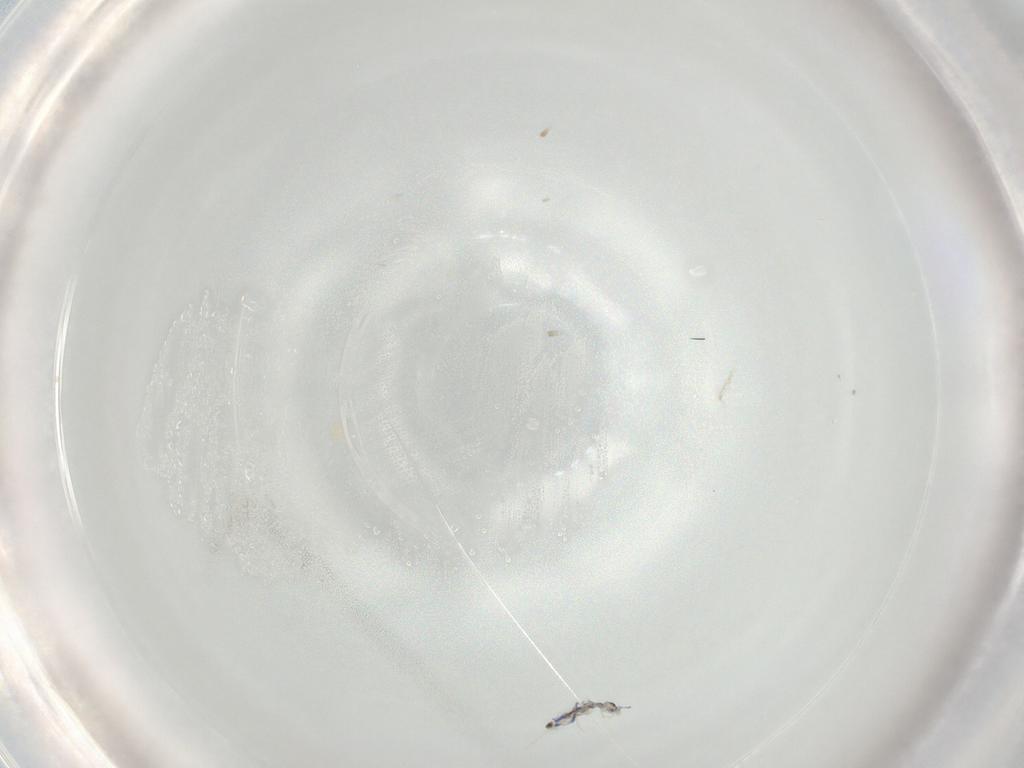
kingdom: Animalia
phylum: Arthropoda
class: Collembola
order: Entomobryomorpha
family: Entomobryidae
